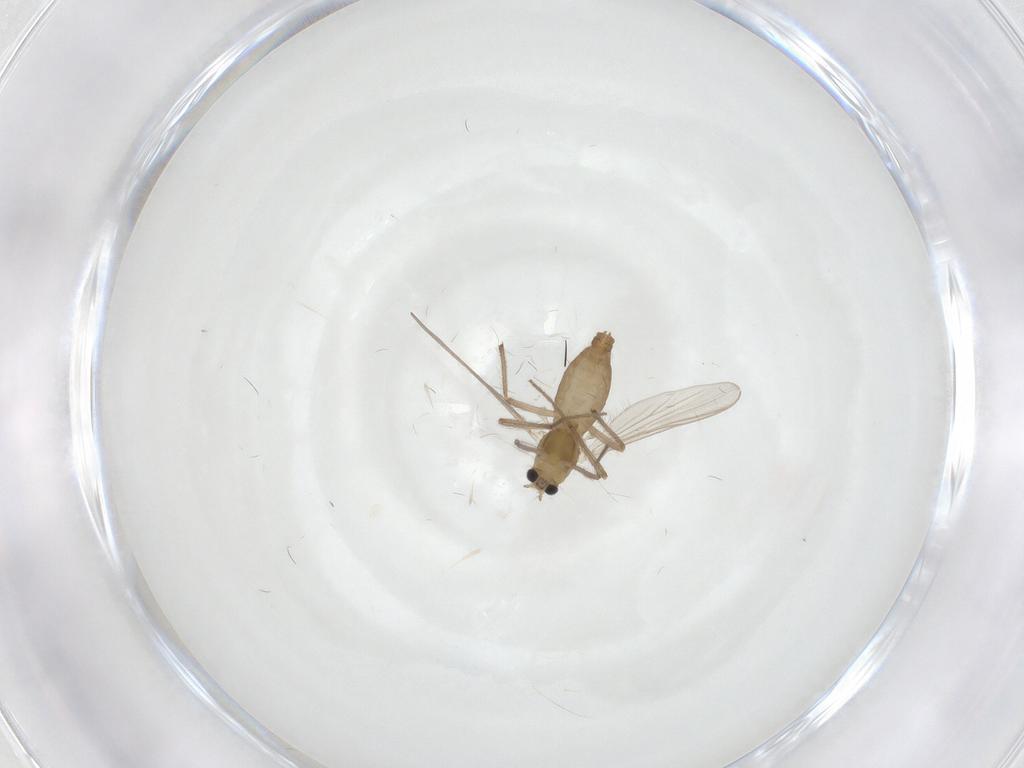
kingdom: Animalia
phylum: Arthropoda
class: Insecta
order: Diptera
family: Chironomidae
